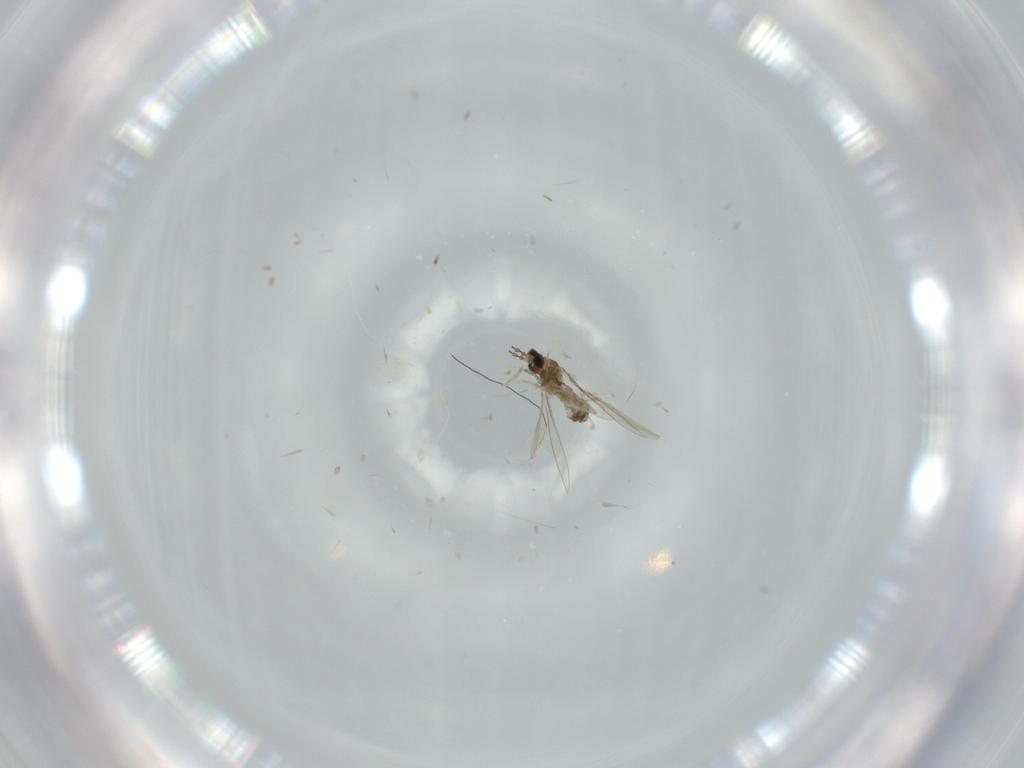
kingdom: Animalia
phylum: Arthropoda
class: Insecta
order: Diptera
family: Cecidomyiidae
